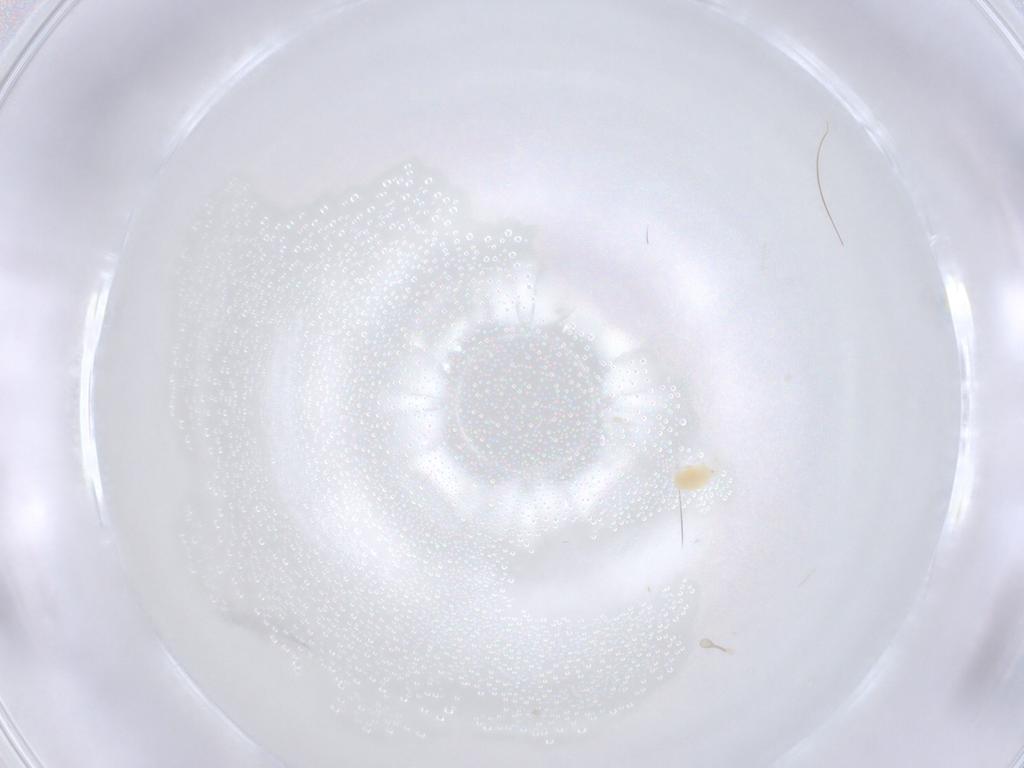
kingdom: Animalia
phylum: Arthropoda
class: Arachnida
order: Trombidiformes
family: Tetranychidae
